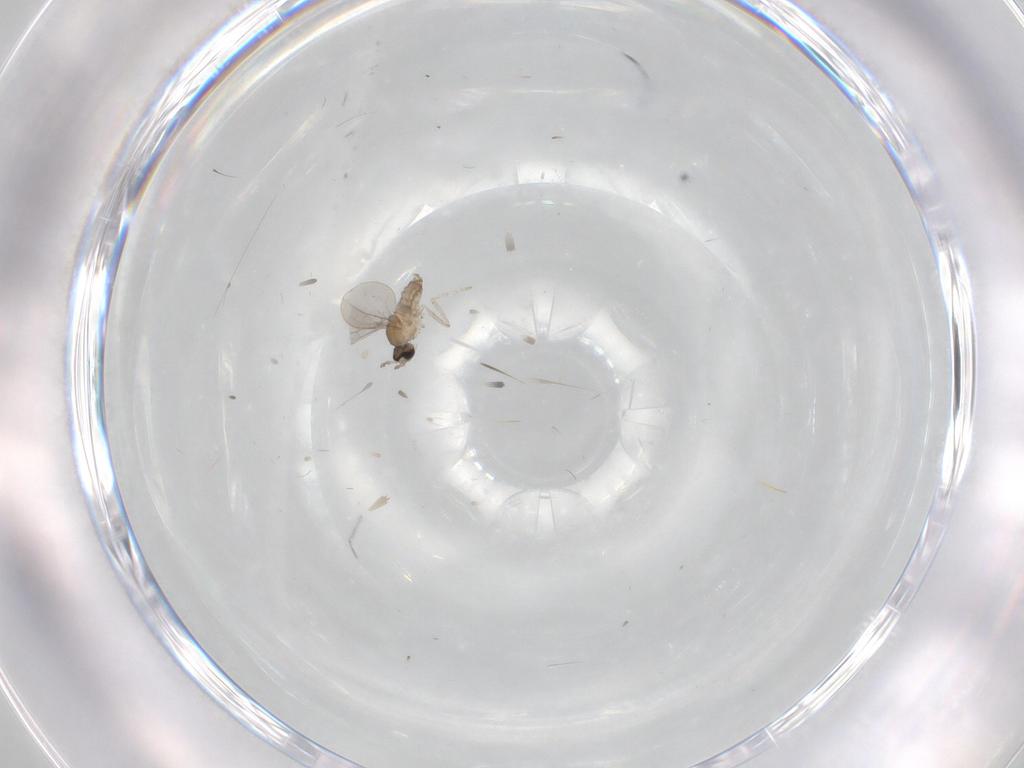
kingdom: Animalia
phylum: Arthropoda
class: Insecta
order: Diptera
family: Cecidomyiidae
